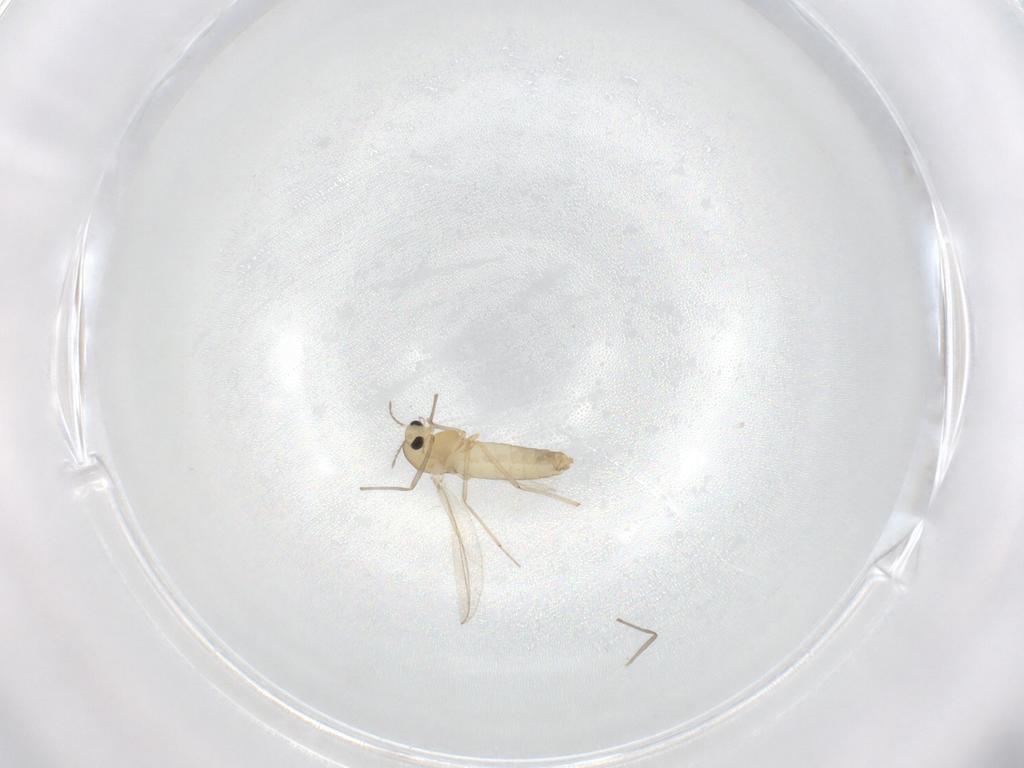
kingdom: Animalia
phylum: Arthropoda
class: Insecta
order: Diptera
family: Chironomidae
